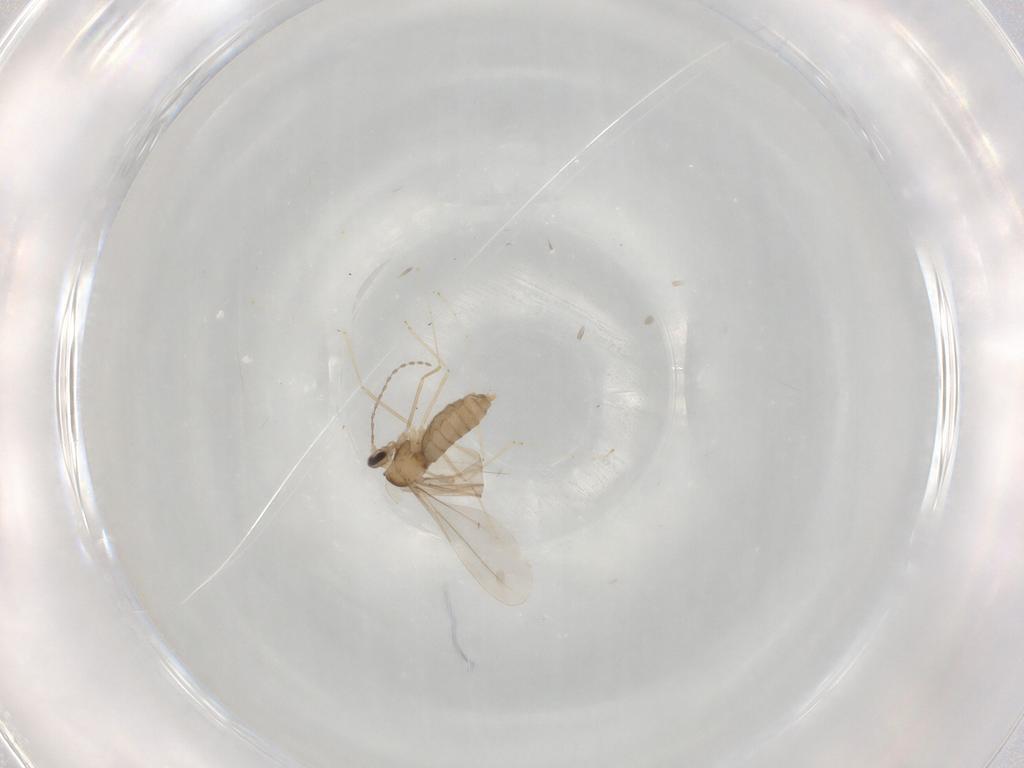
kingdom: Animalia
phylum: Arthropoda
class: Insecta
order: Diptera
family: Cecidomyiidae
